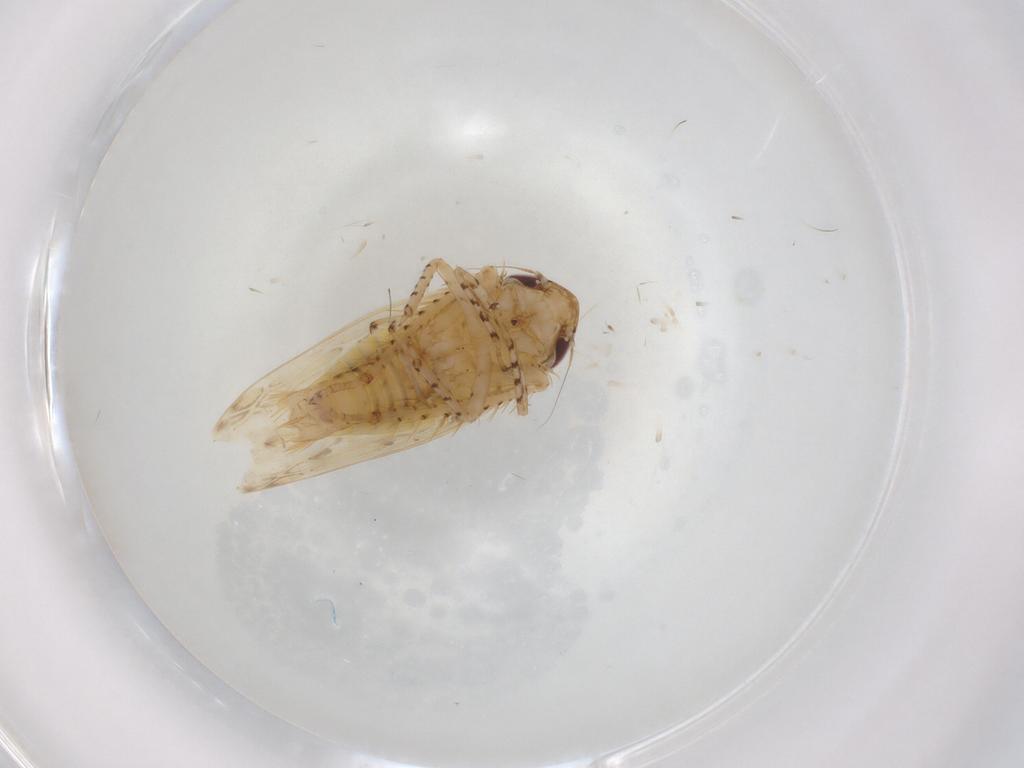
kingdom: Animalia
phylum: Arthropoda
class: Insecta
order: Hemiptera
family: Cicadellidae
